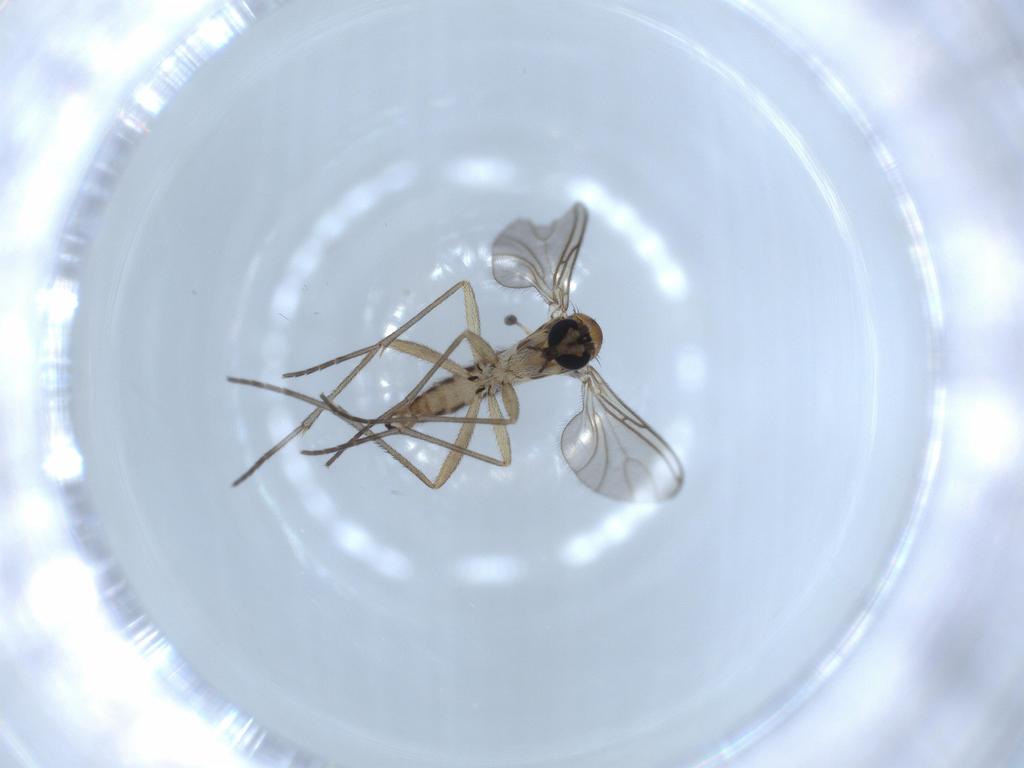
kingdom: Animalia
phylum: Arthropoda
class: Insecta
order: Diptera
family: Sciaridae
